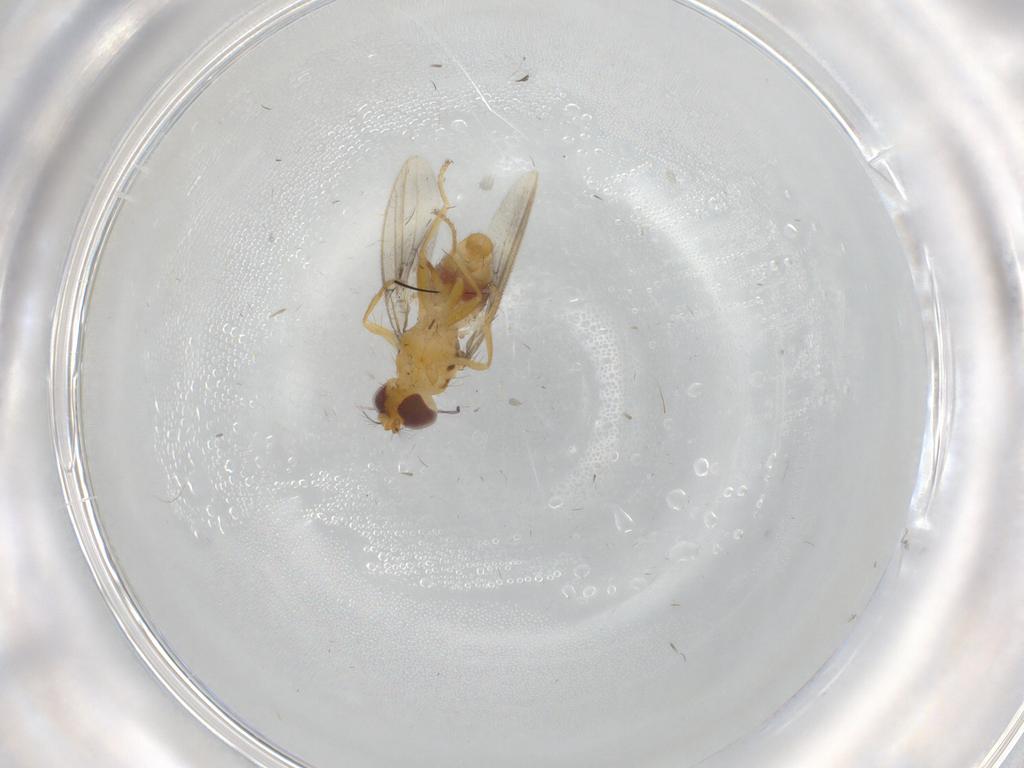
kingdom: Animalia
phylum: Arthropoda
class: Insecta
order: Diptera
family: Periscelididae
